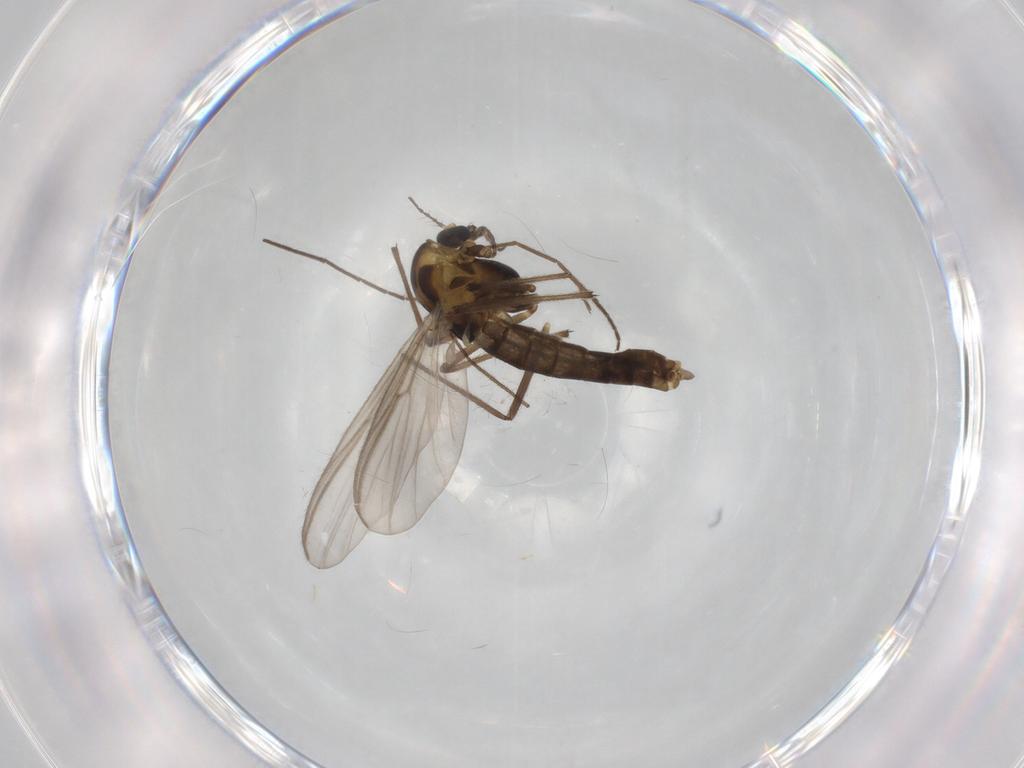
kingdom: Animalia
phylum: Arthropoda
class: Insecta
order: Diptera
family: Chironomidae
